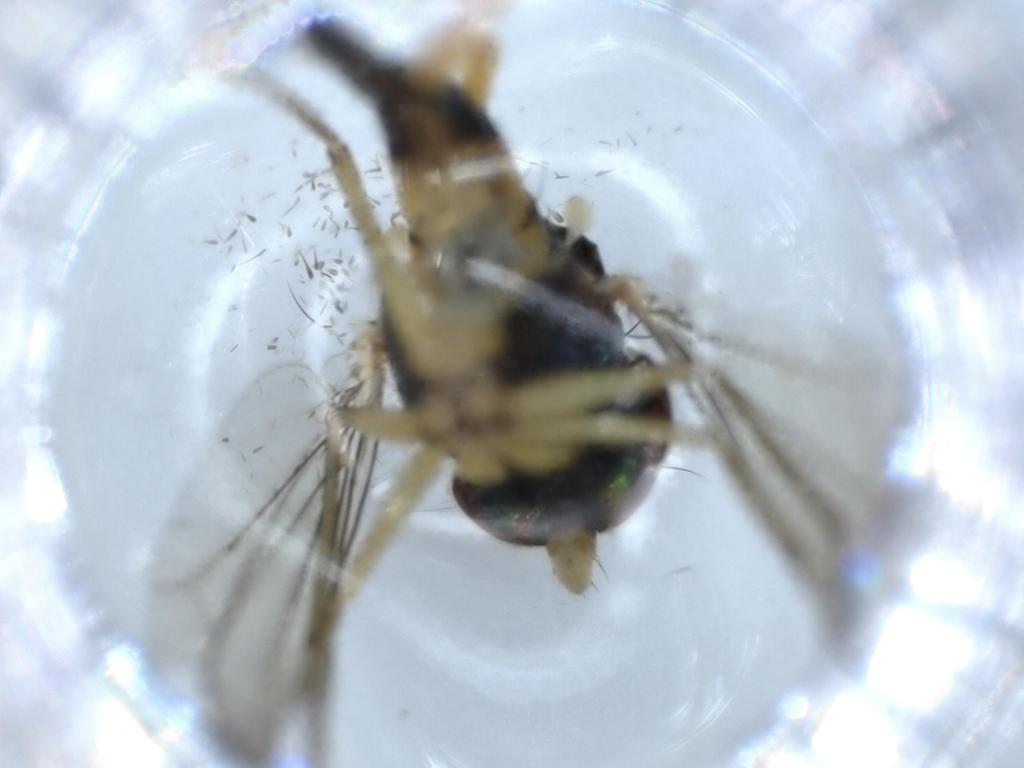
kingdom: Animalia
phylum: Arthropoda
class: Insecta
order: Diptera
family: Dolichopodidae
